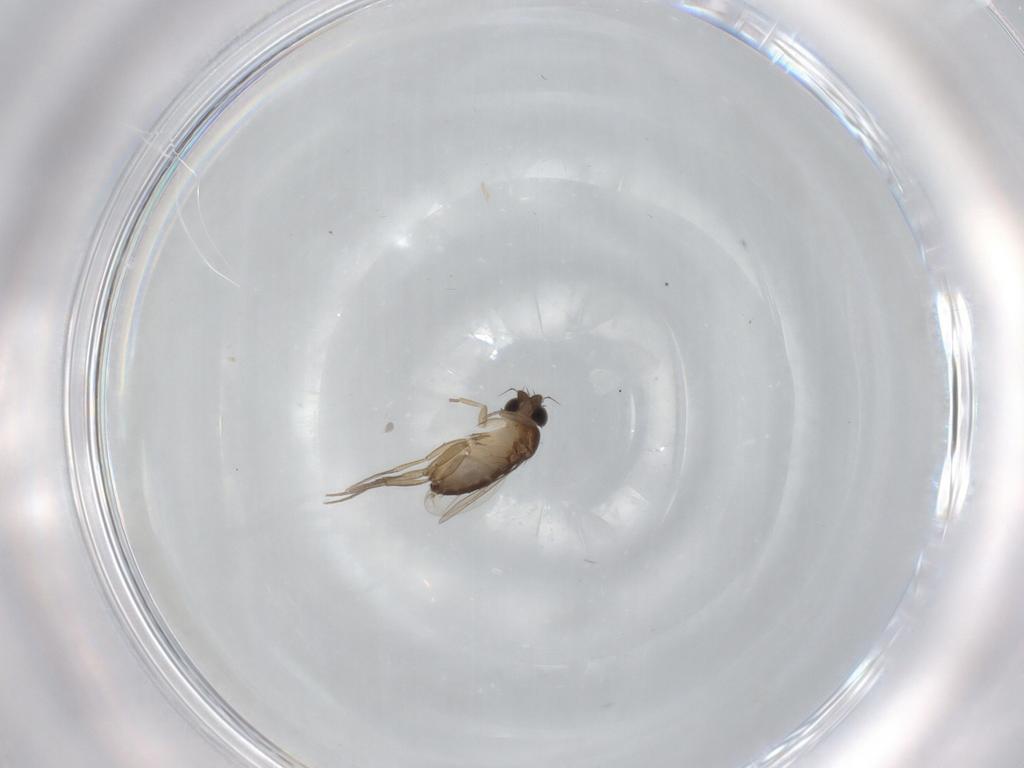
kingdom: Animalia
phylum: Arthropoda
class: Insecta
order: Diptera
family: Phoridae
